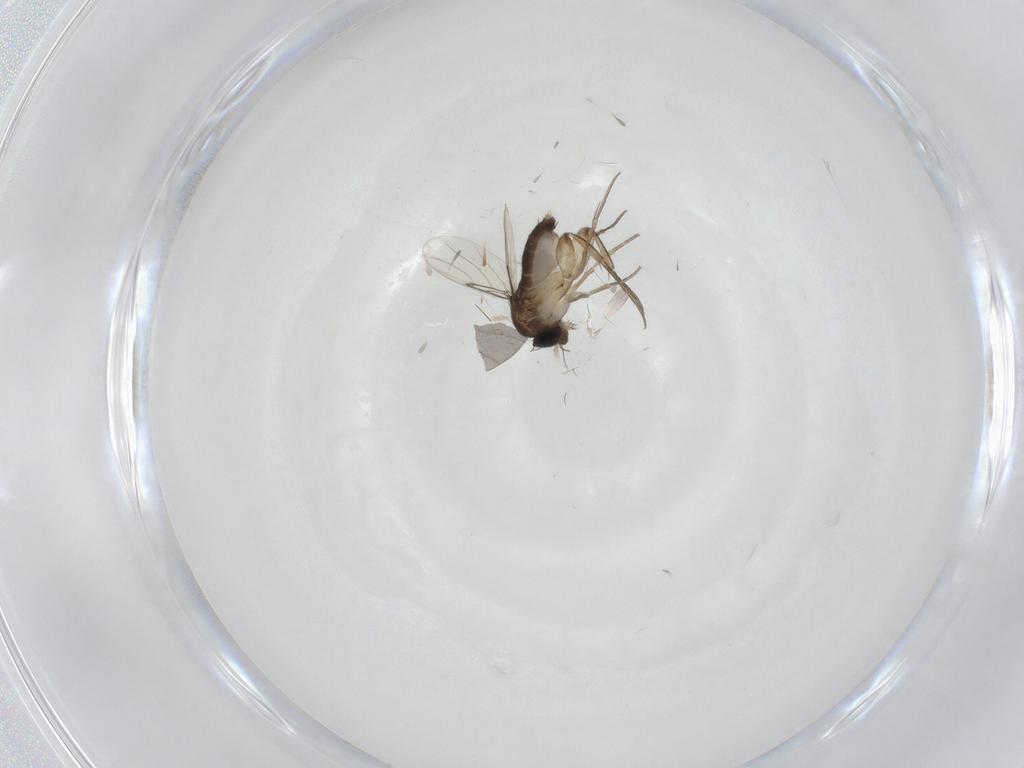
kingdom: Animalia
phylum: Arthropoda
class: Insecta
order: Diptera
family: Phoridae
